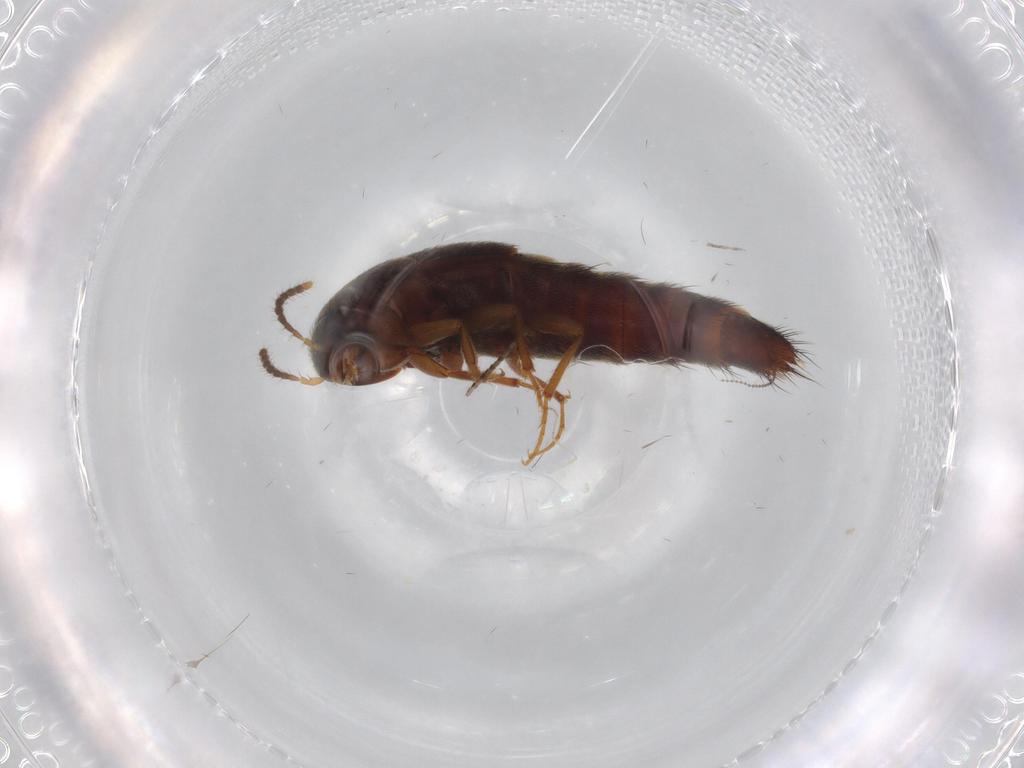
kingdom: Animalia
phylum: Arthropoda
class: Insecta
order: Coleoptera
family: Staphylinidae
